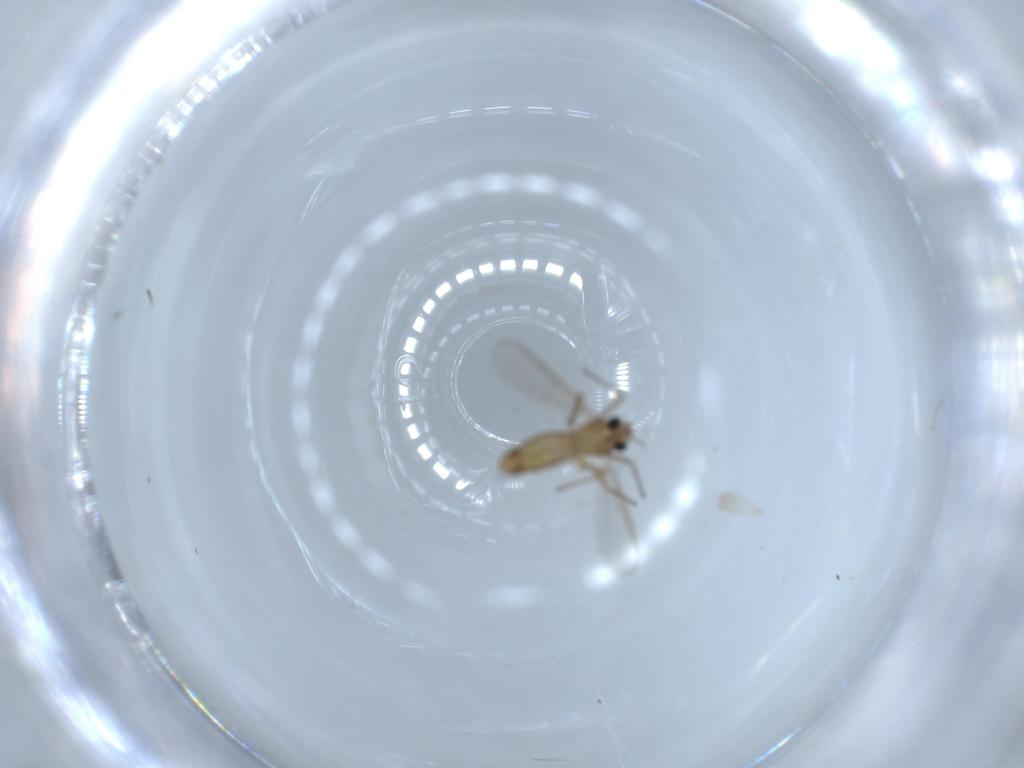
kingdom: Animalia
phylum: Arthropoda
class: Insecta
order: Diptera
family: Chironomidae
